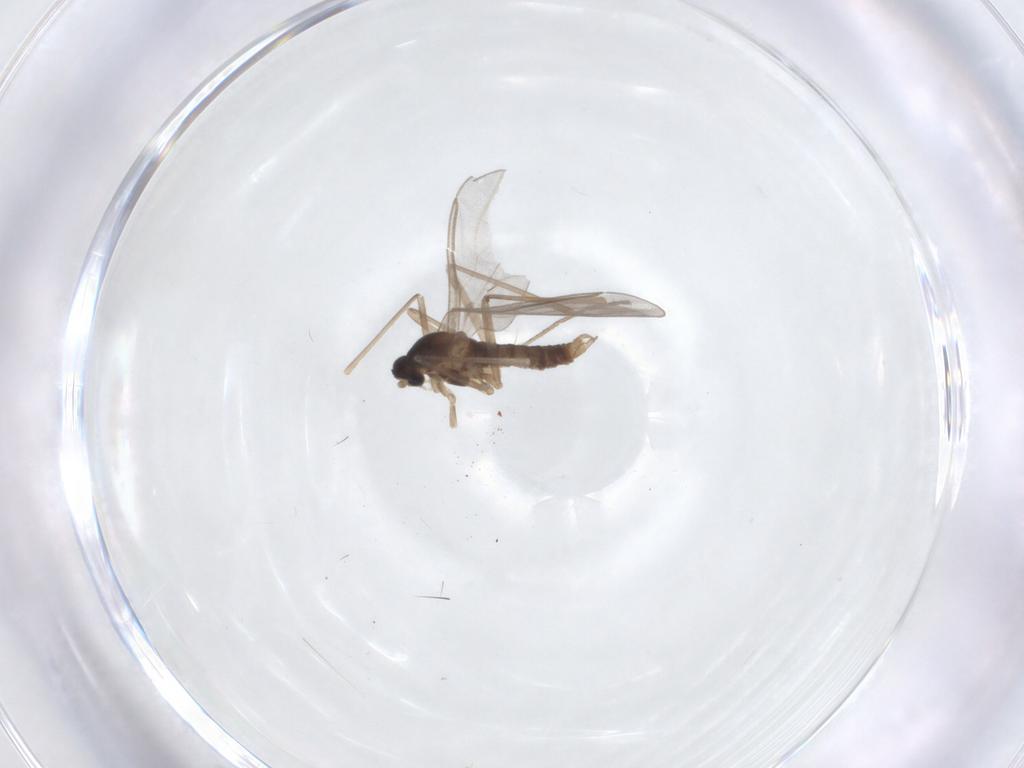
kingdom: Animalia
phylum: Arthropoda
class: Insecta
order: Diptera
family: Cecidomyiidae
